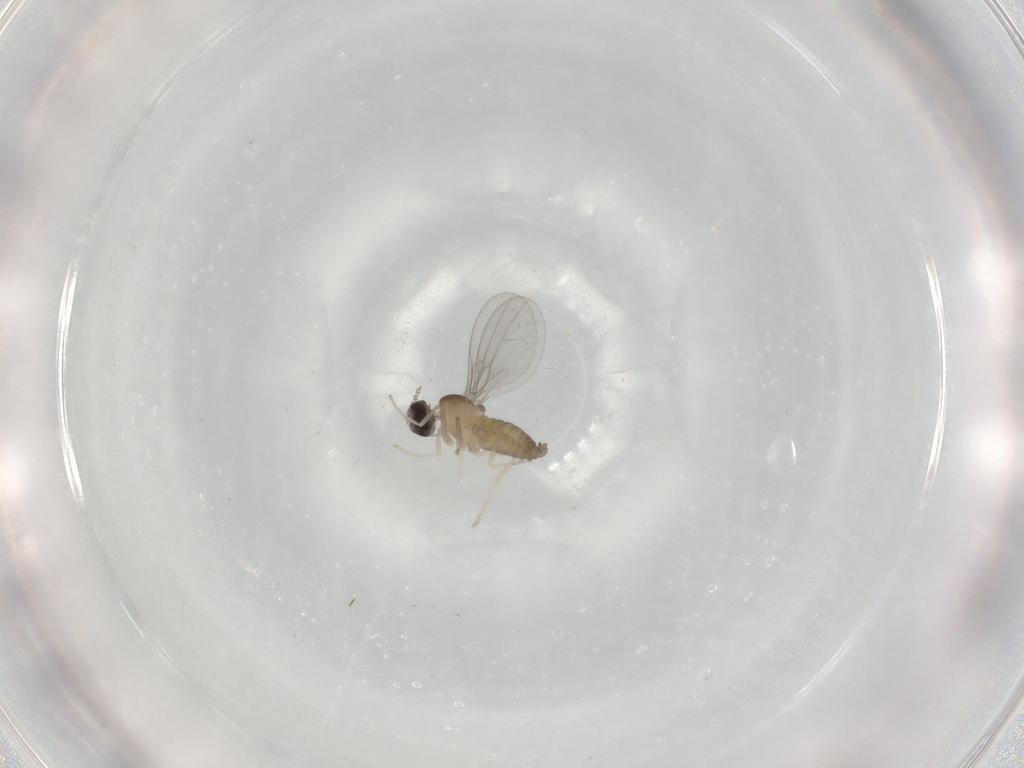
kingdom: Animalia
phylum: Arthropoda
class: Insecta
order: Diptera
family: Cecidomyiidae
